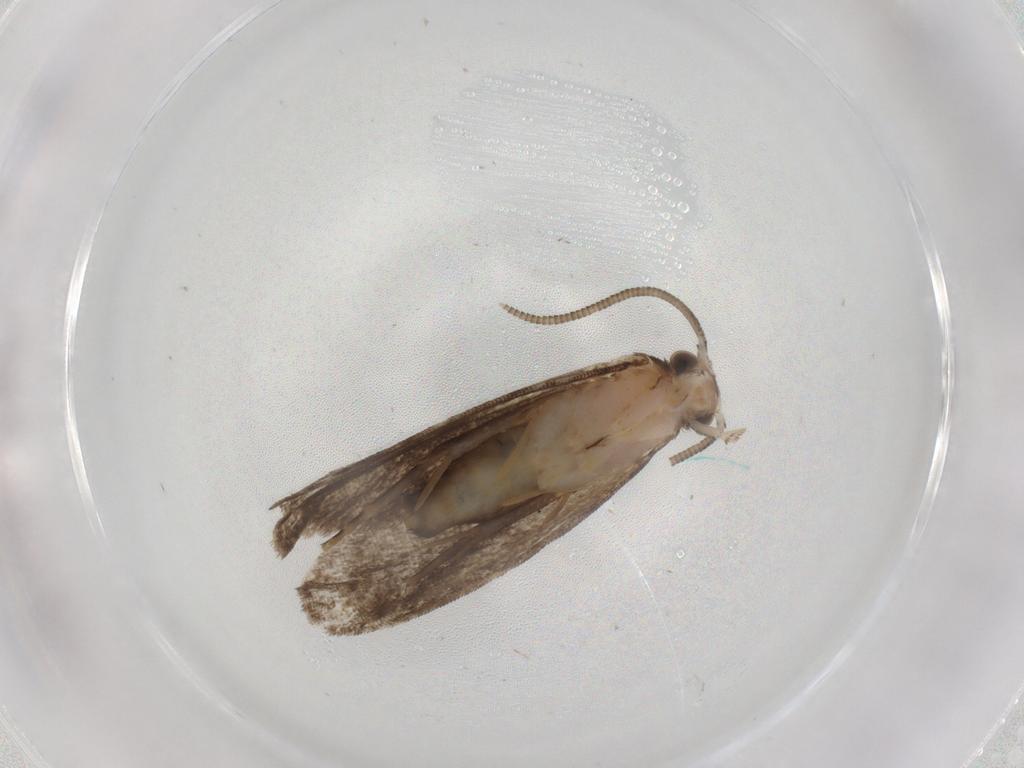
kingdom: Animalia
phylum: Arthropoda
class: Insecta
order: Lepidoptera
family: Dryadaulidae
